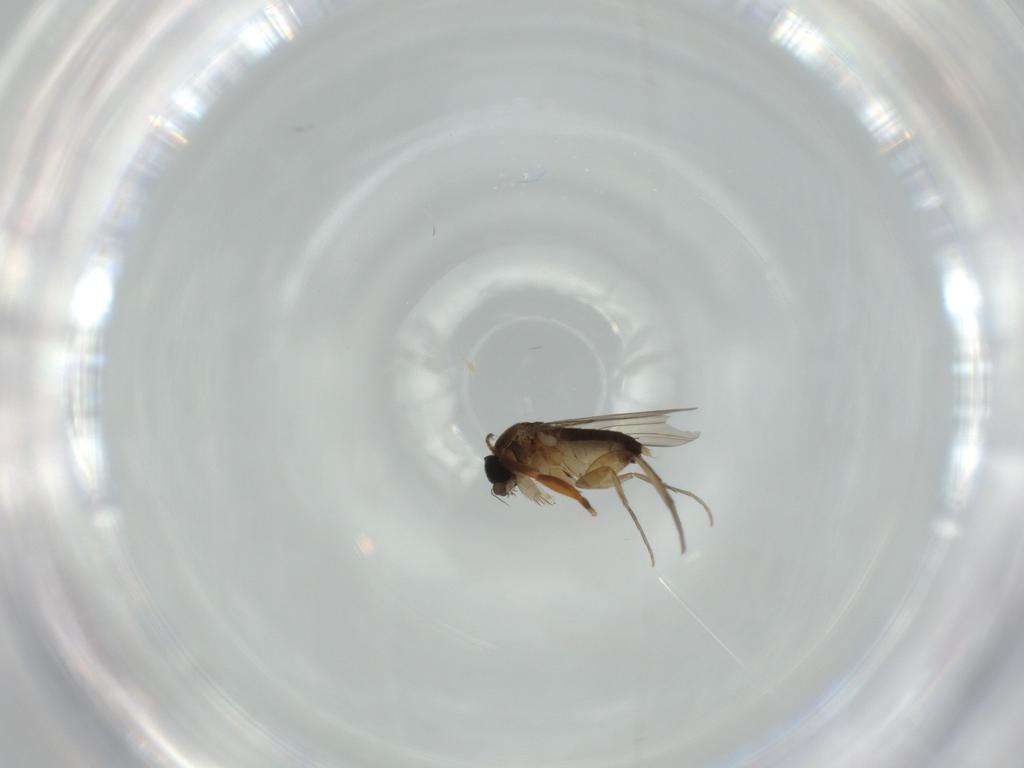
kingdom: Animalia
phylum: Arthropoda
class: Insecta
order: Diptera
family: Phoridae
